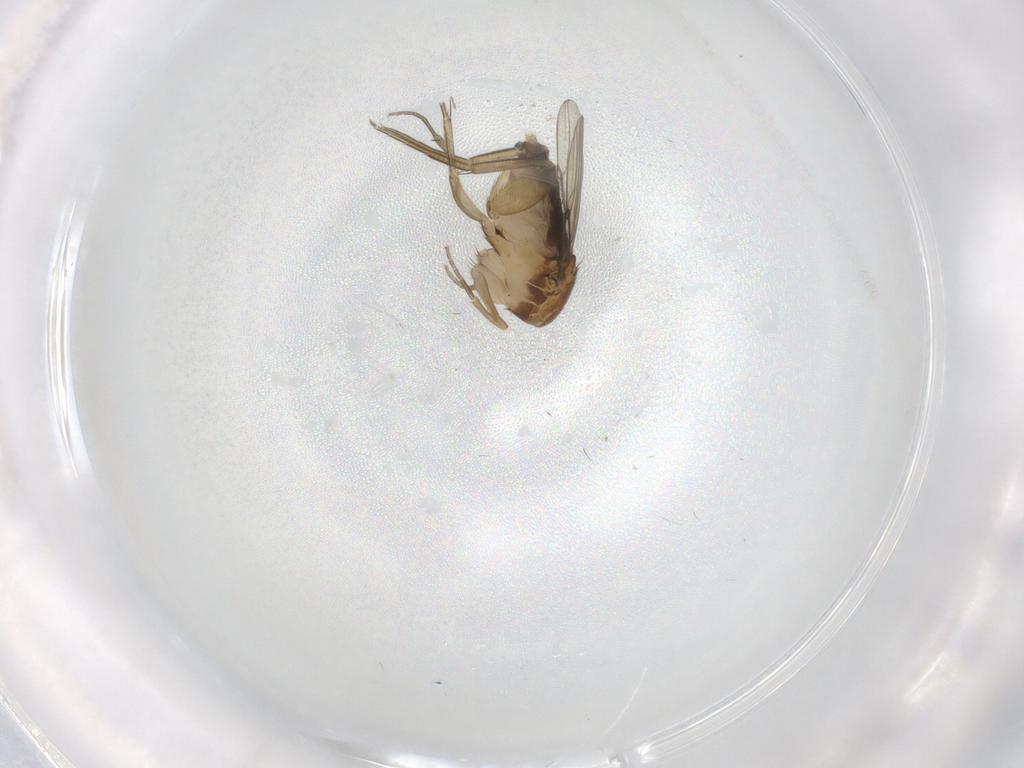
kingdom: Animalia
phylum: Arthropoda
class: Insecta
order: Diptera
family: Phoridae
